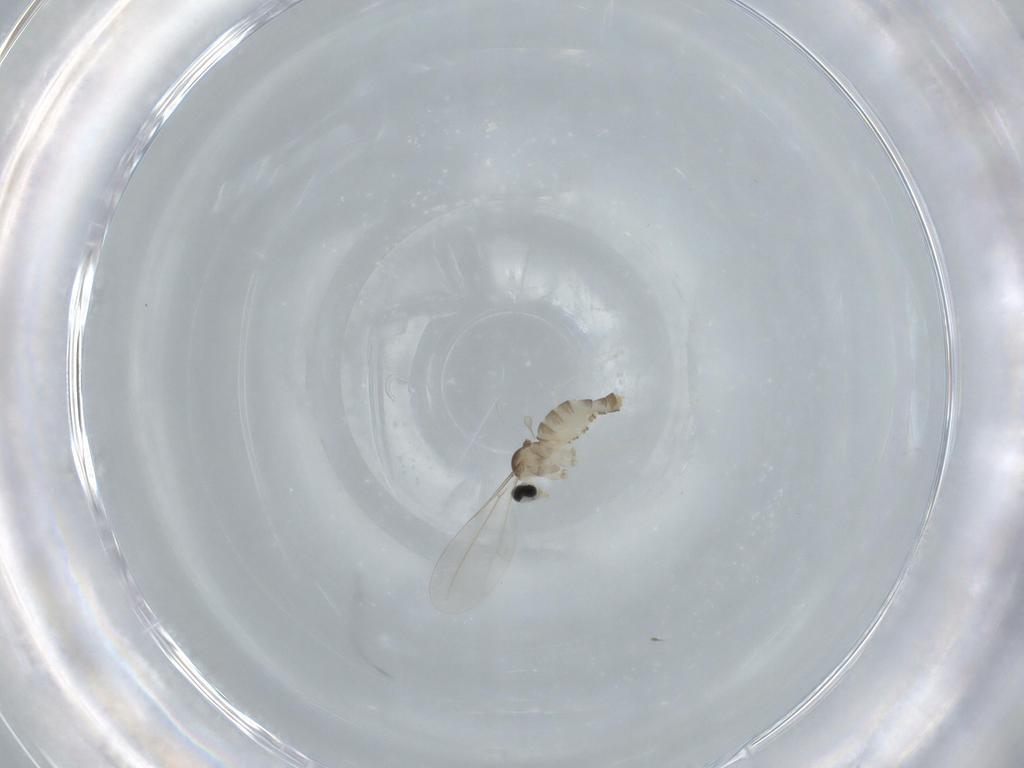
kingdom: Animalia
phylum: Arthropoda
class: Insecta
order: Diptera
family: Cecidomyiidae
